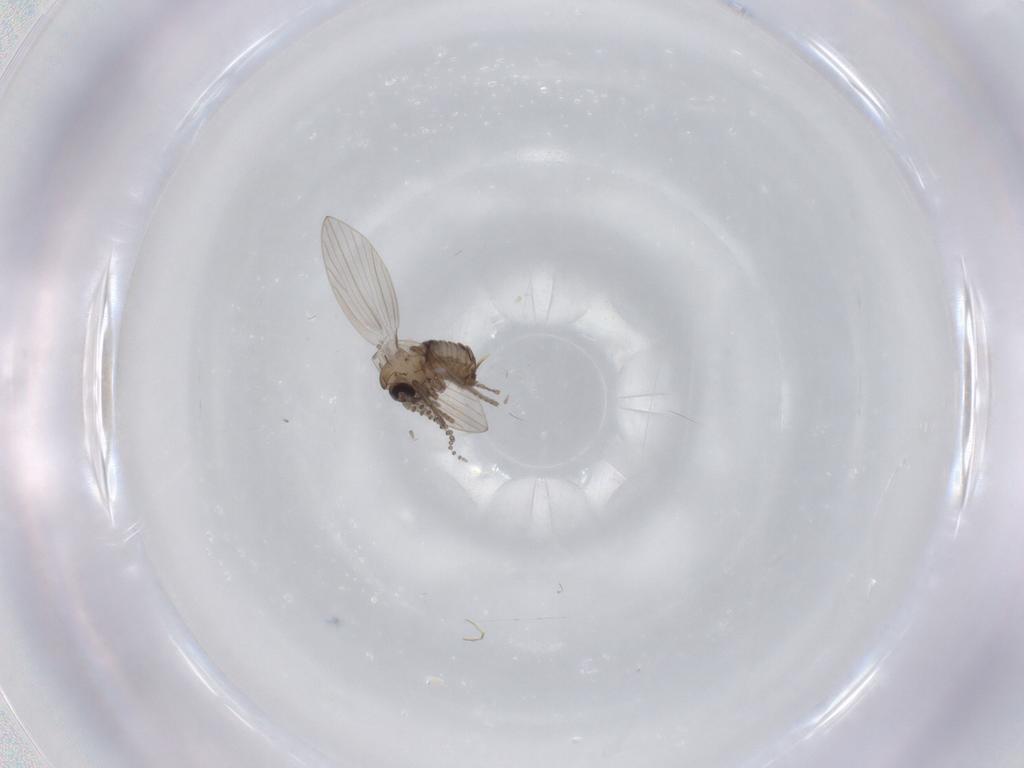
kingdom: Animalia
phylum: Arthropoda
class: Insecta
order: Diptera
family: Psychodidae
